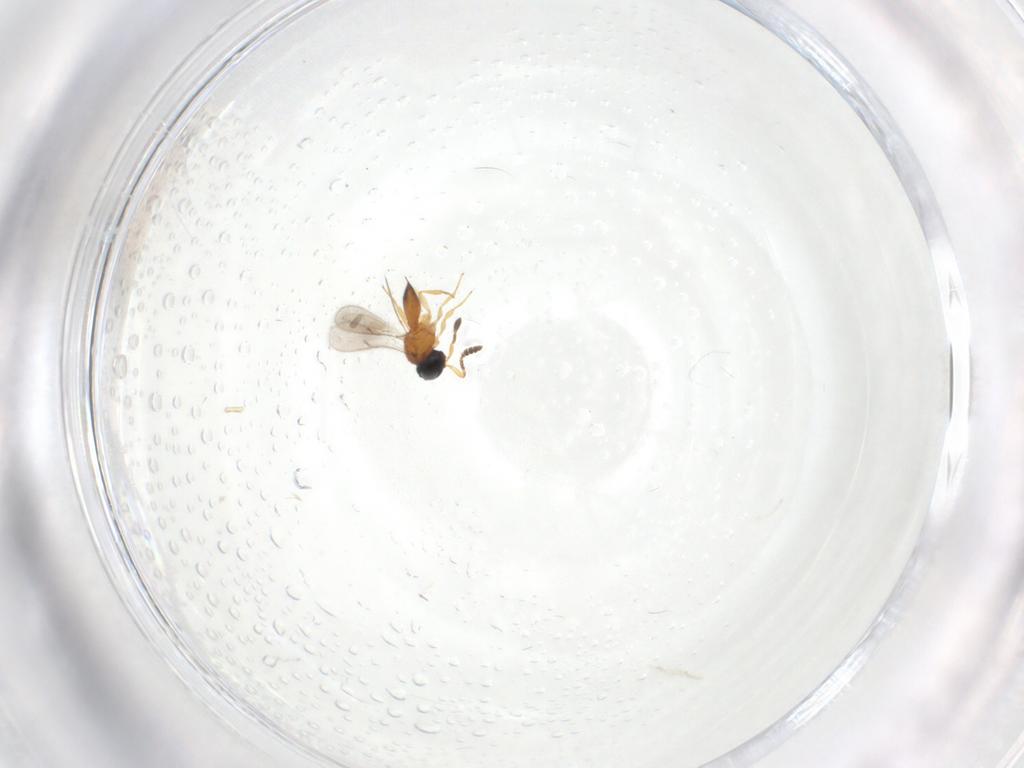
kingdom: Animalia
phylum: Arthropoda
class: Insecta
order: Hymenoptera
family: Scelionidae
